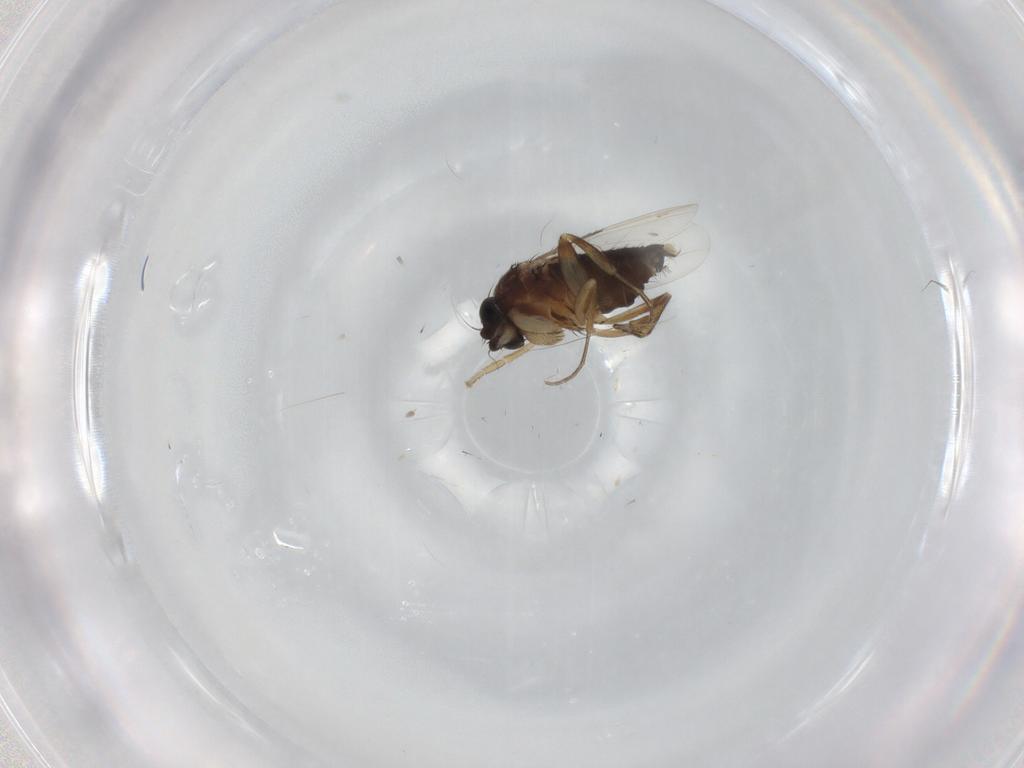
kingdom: Animalia
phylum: Arthropoda
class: Insecta
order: Diptera
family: Phoridae
